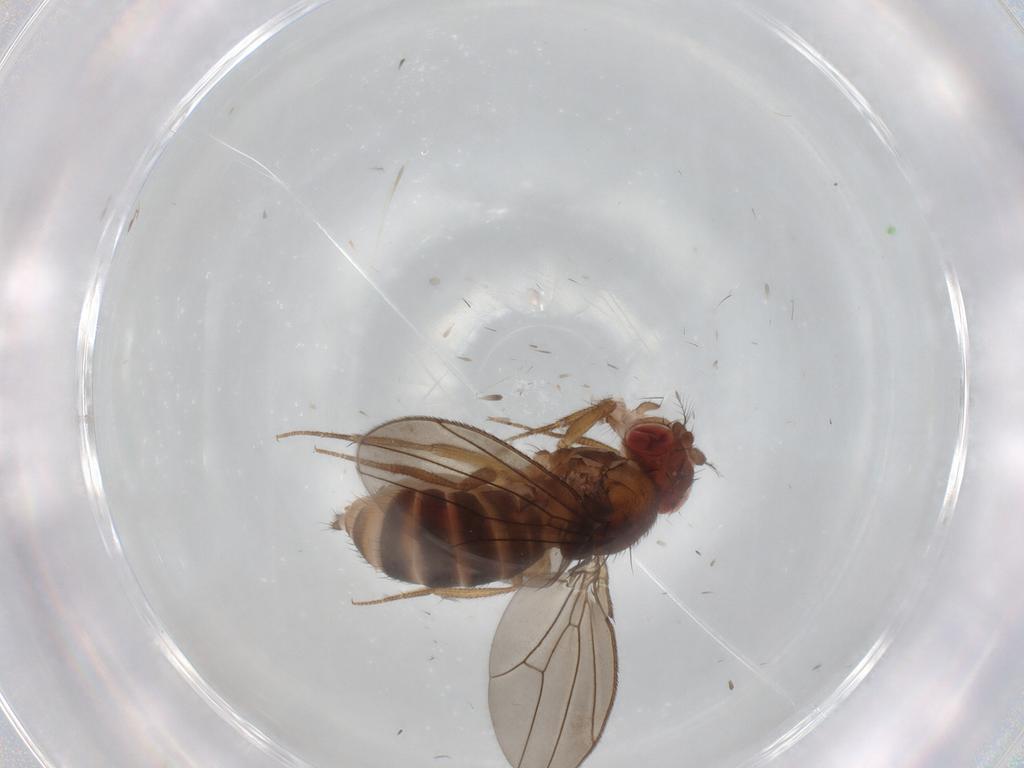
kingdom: Animalia
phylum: Arthropoda
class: Insecta
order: Diptera
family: Drosophilidae
